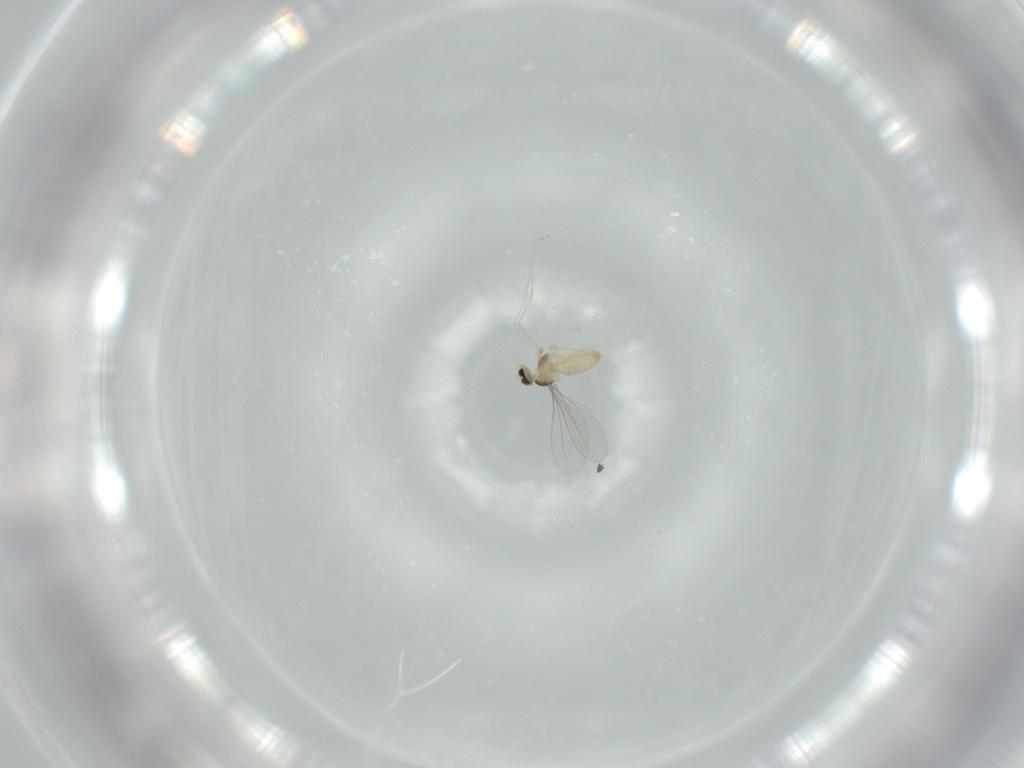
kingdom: Animalia
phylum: Arthropoda
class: Insecta
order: Diptera
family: Cecidomyiidae
